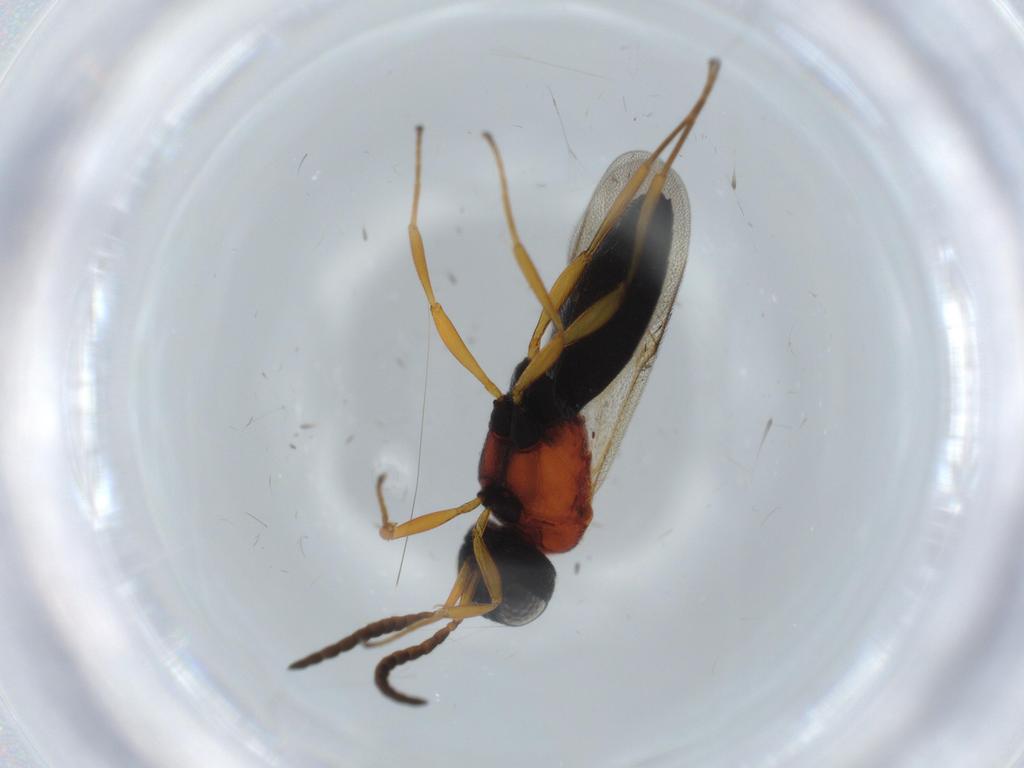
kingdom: Animalia
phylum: Arthropoda
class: Insecta
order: Hymenoptera
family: Scelionidae
